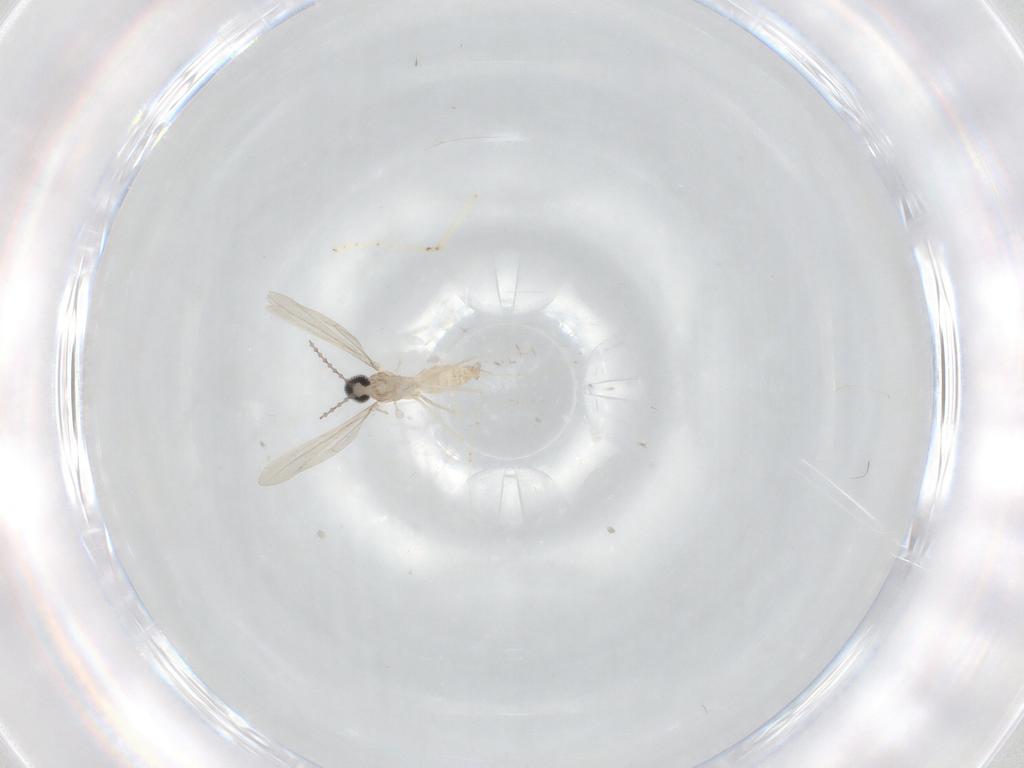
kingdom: Animalia
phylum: Arthropoda
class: Insecta
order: Diptera
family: Cecidomyiidae
